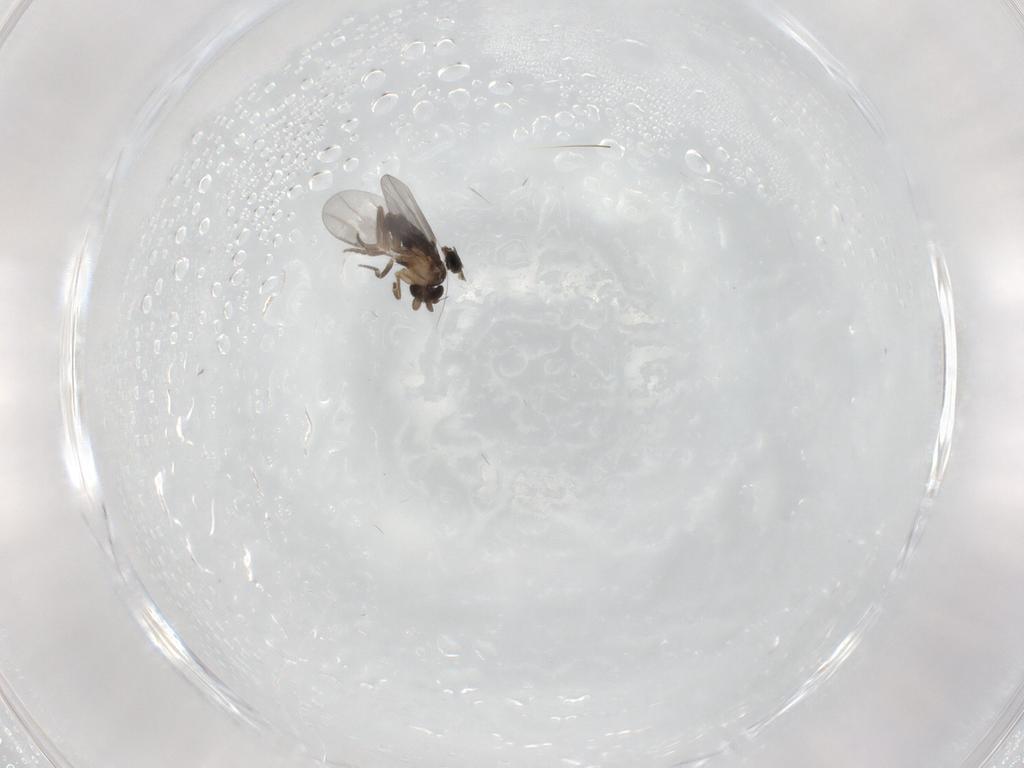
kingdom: Animalia
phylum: Arthropoda
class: Insecta
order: Diptera
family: Cecidomyiidae
